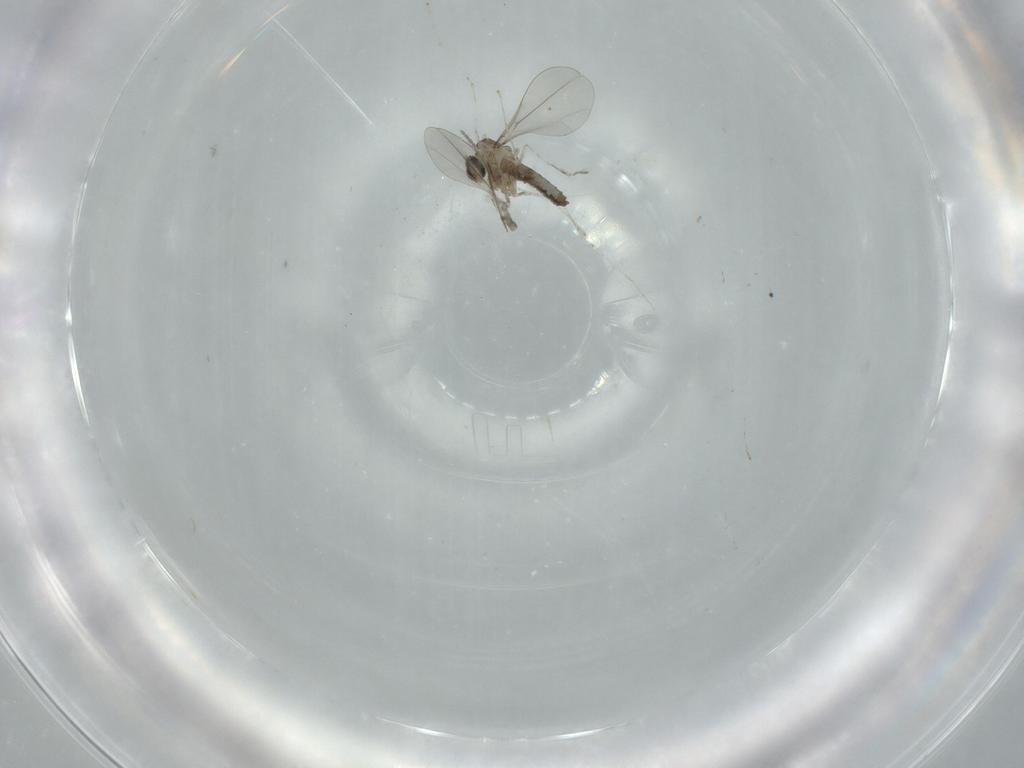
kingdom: Animalia
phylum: Arthropoda
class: Insecta
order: Diptera
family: Cecidomyiidae
